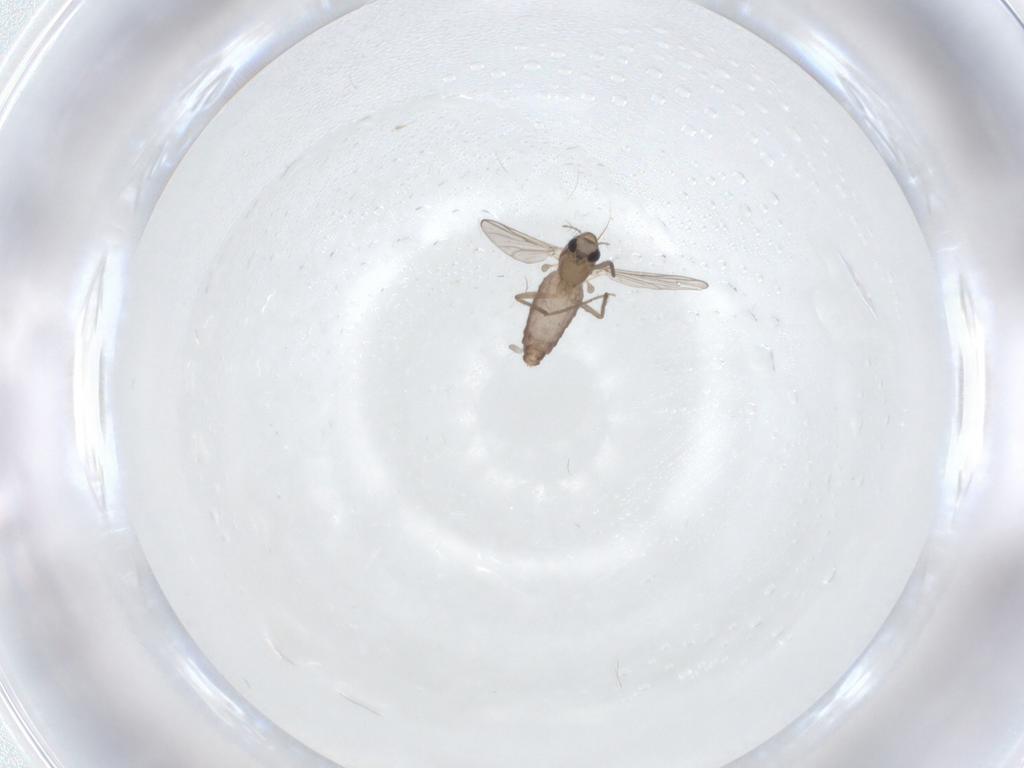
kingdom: Animalia
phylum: Arthropoda
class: Insecta
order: Diptera
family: Chironomidae
